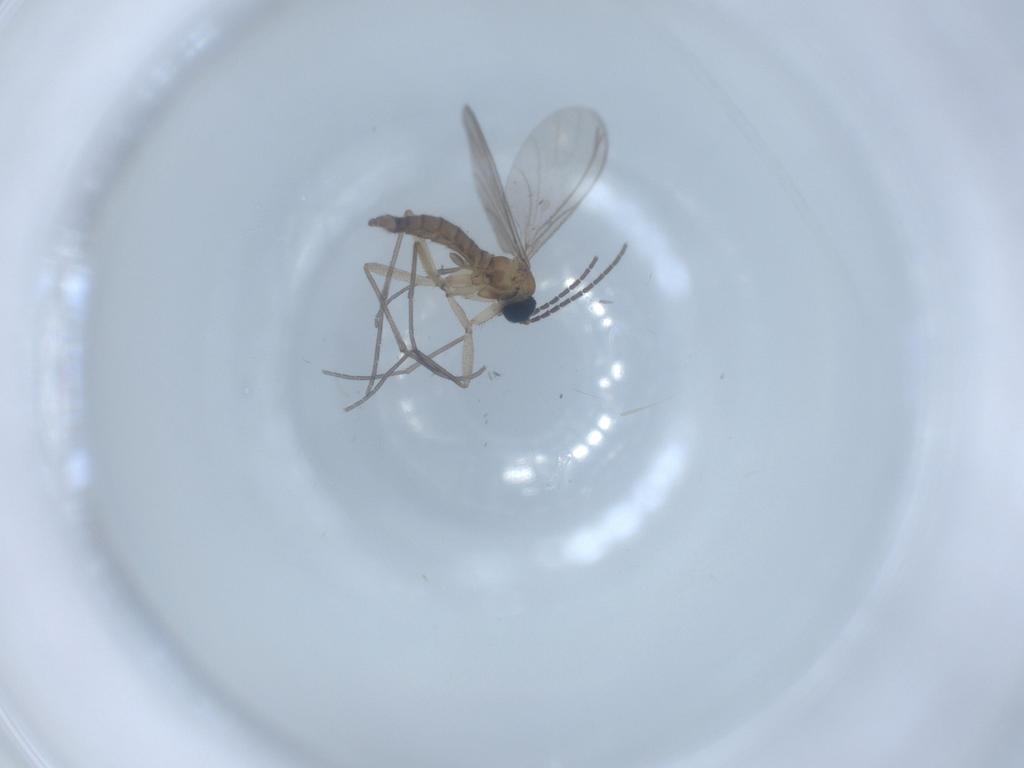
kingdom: Animalia
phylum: Arthropoda
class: Insecta
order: Diptera
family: Sciaridae
